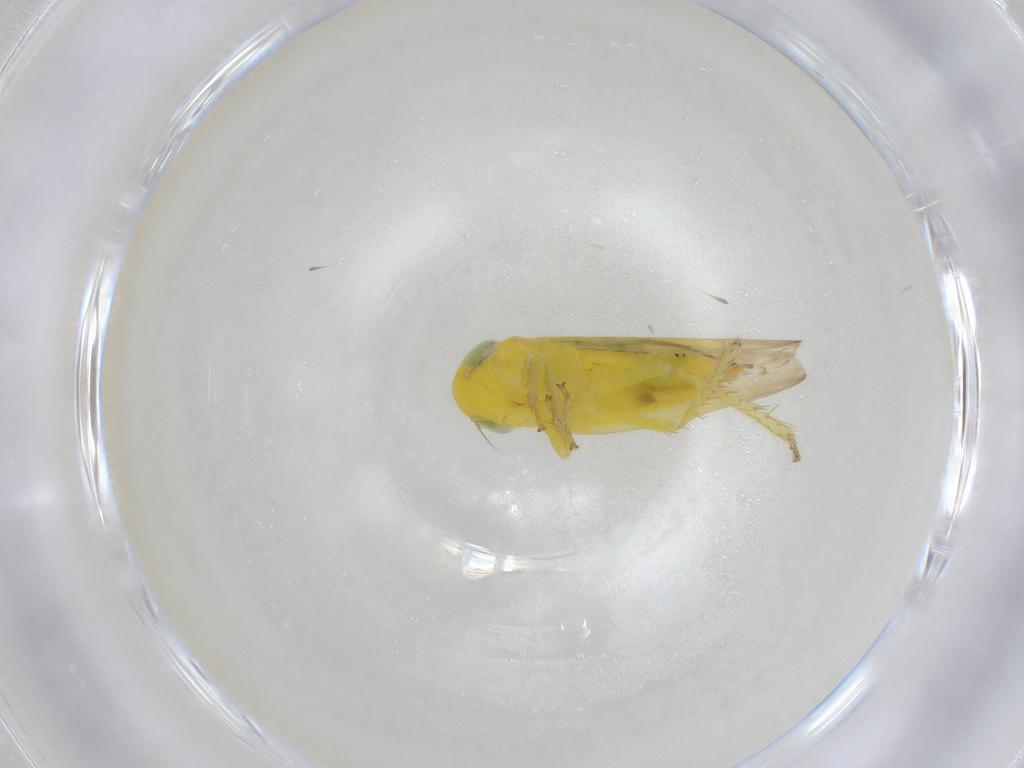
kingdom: Animalia
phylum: Arthropoda
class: Insecta
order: Diptera
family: Cecidomyiidae
